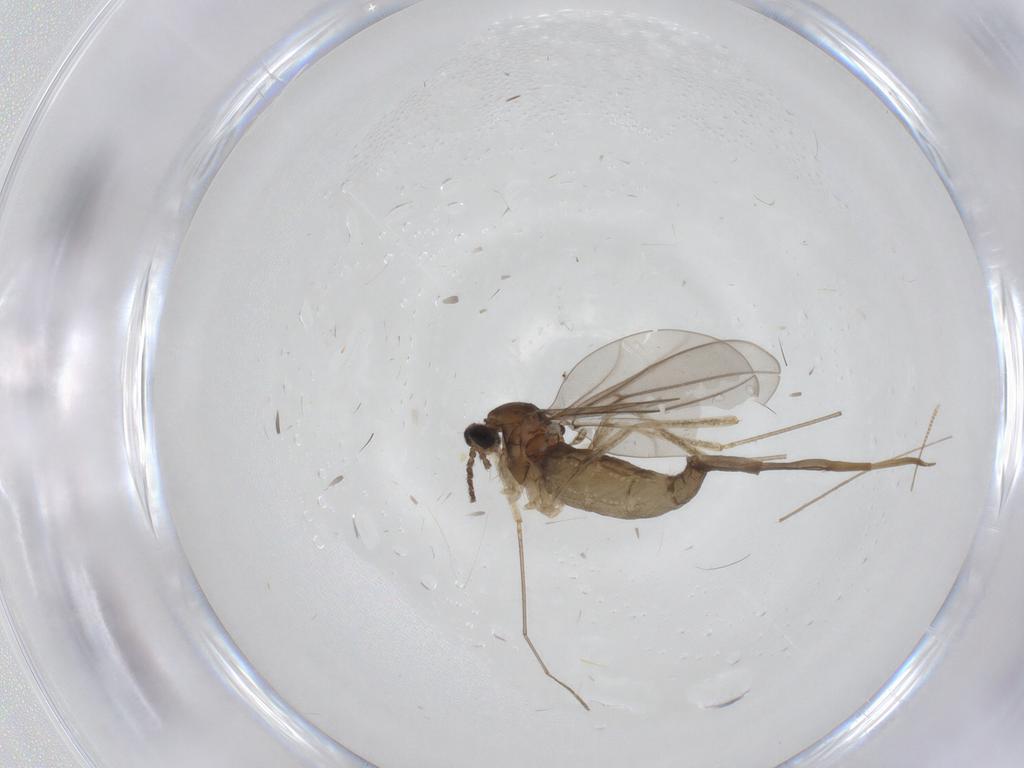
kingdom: Animalia
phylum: Arthropoda
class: Insecta
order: Diptera
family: Cecidomyiidae
